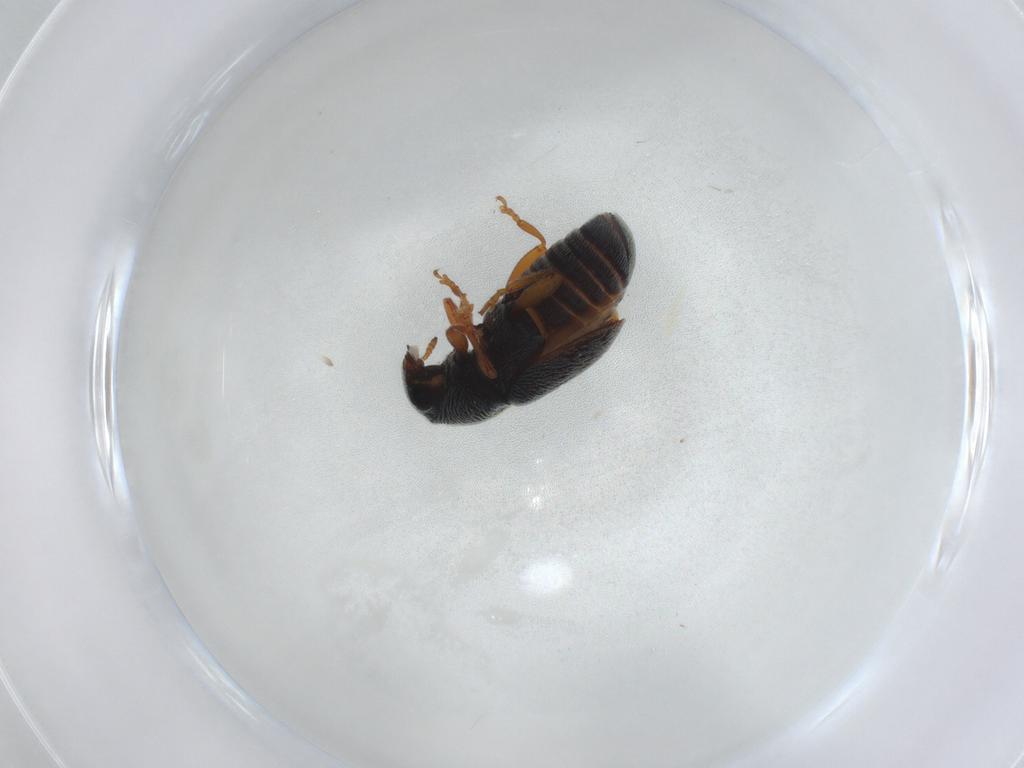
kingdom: Animalia
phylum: Arthropoda
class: Insecta
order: Coleoptera
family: Anthribidae
